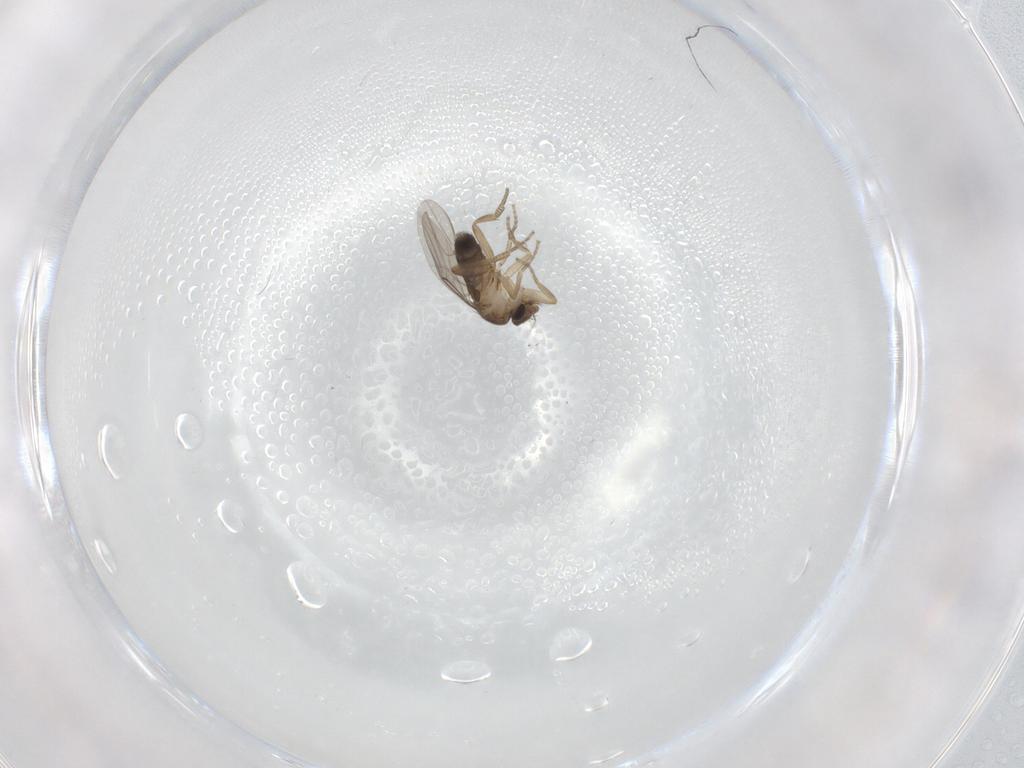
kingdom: Animalia
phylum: Arthropoda
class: Insecta
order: Diptera
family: Phoridae
